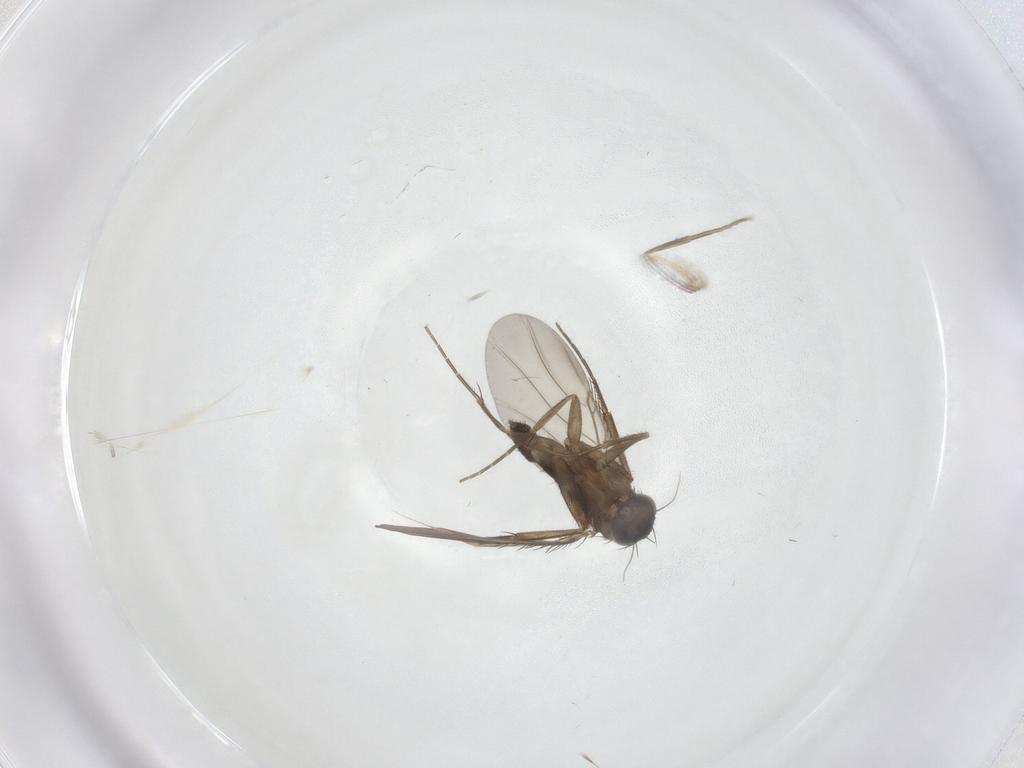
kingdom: Animalia
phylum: Arthropoda
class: Insecta
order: Diptera
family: Phoridae
